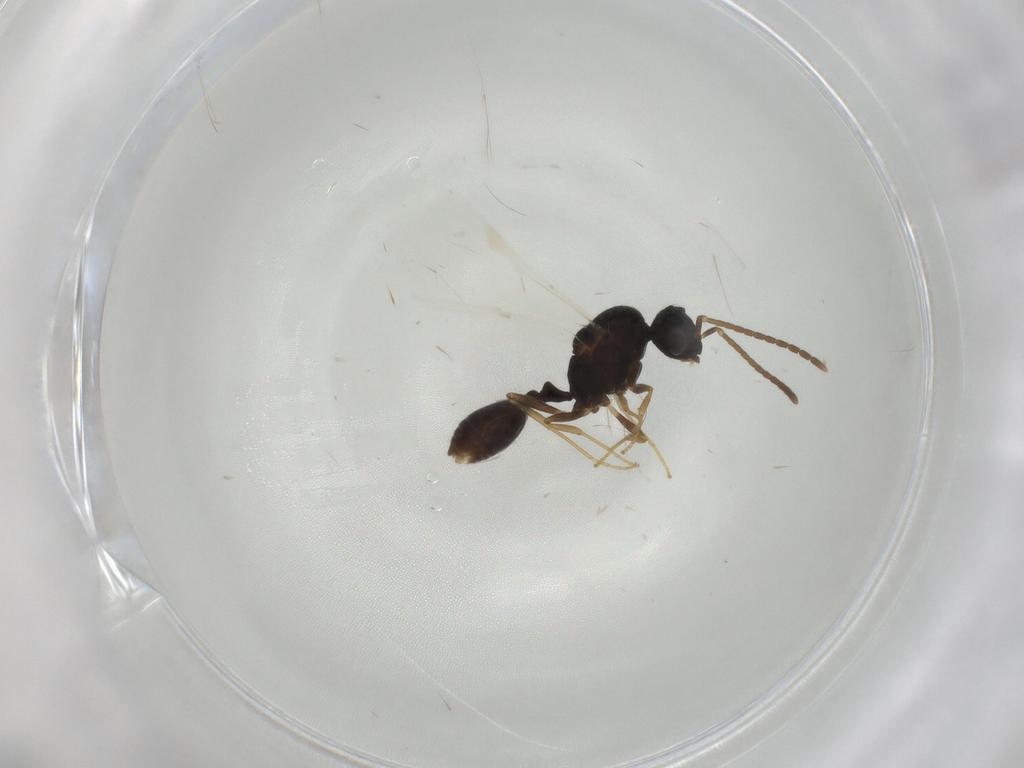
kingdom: Animalia
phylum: Arthropoda
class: Insecta
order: Hymenoptera
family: Formicidae
